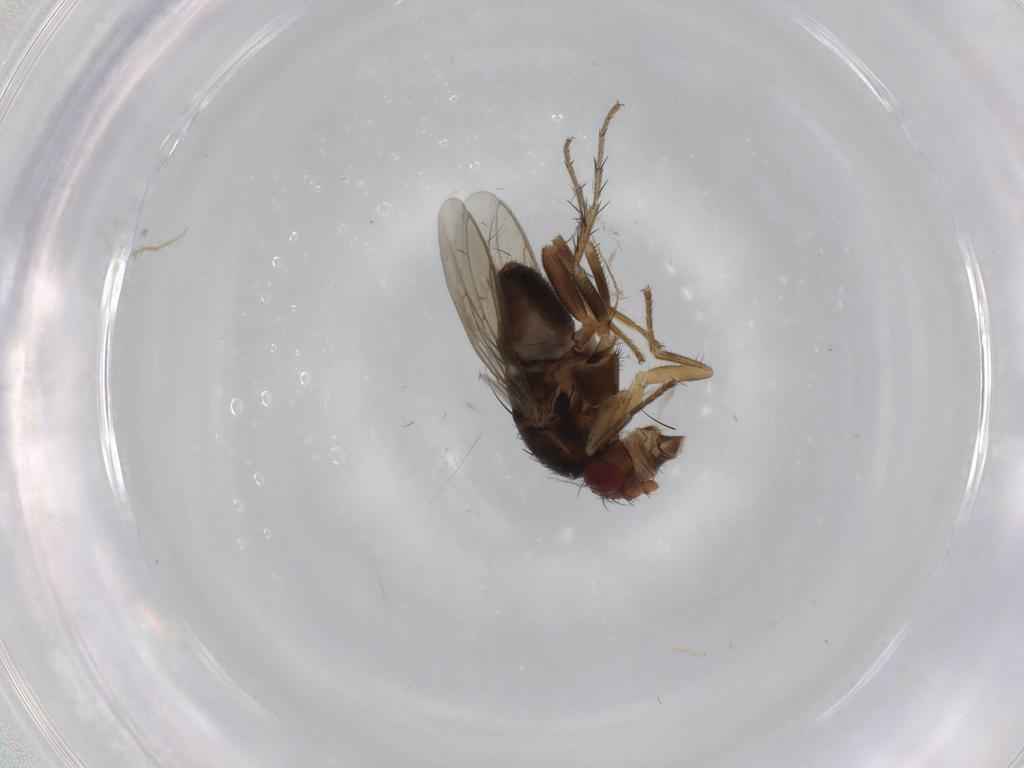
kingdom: Animalia
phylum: Arthropoda
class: Insecta
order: Diptera
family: Sphaeroceridae
